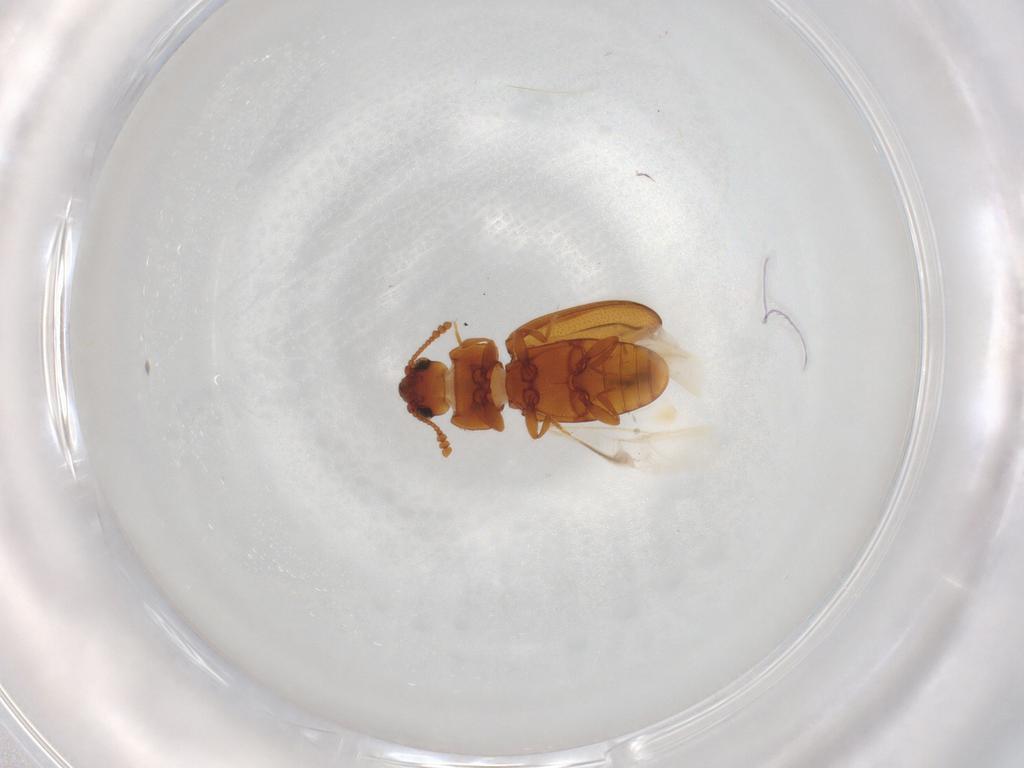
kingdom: Animalia
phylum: Arthropoda
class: Insecta
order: Coleoptera
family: Erotylidae
